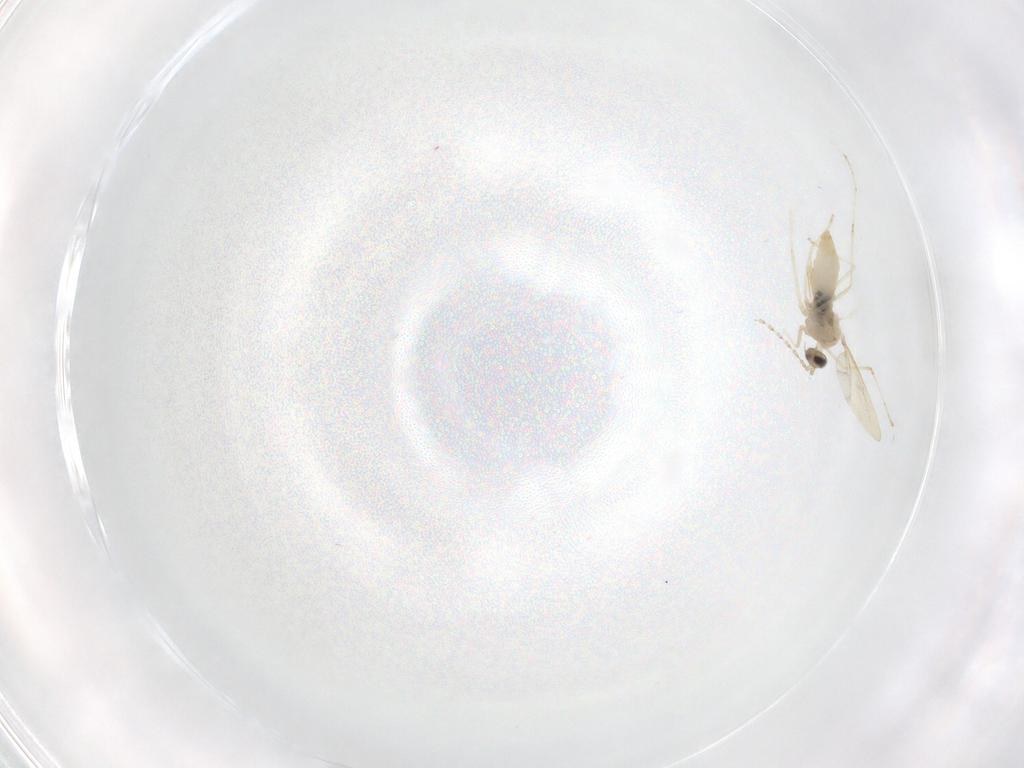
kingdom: Animalia
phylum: Arthropoda
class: Insecta
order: Diptera
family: Cecidomyiidae
